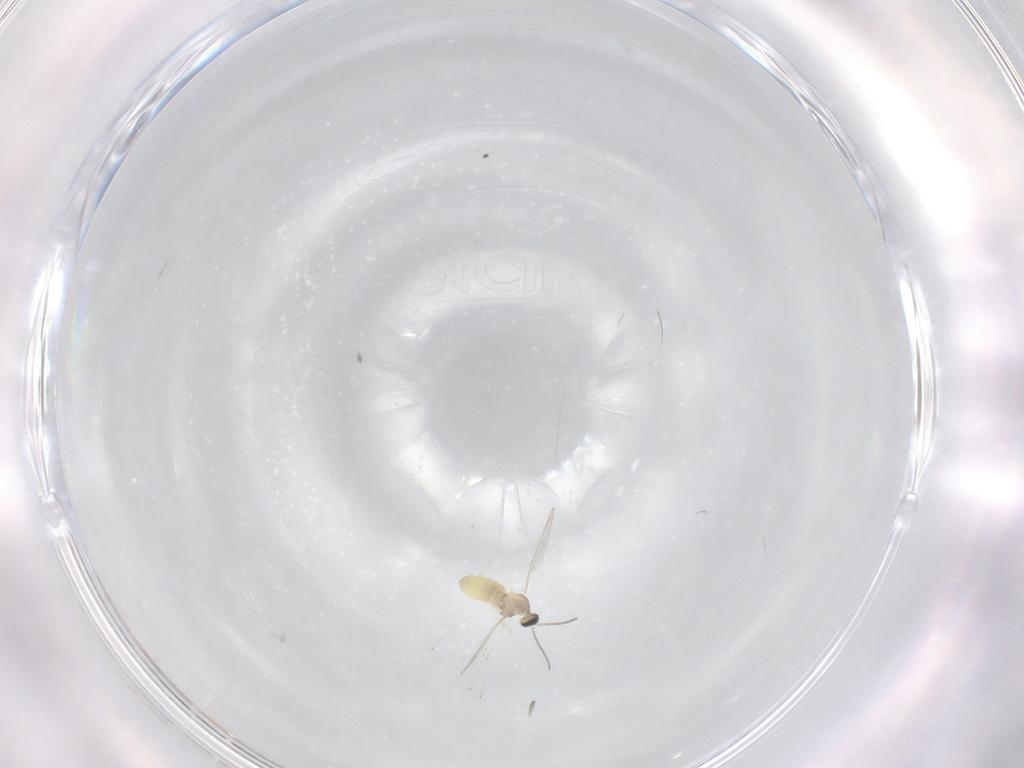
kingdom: Animalia
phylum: Arthropoda
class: Insecta
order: Diptera
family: Cecidomyiidae
